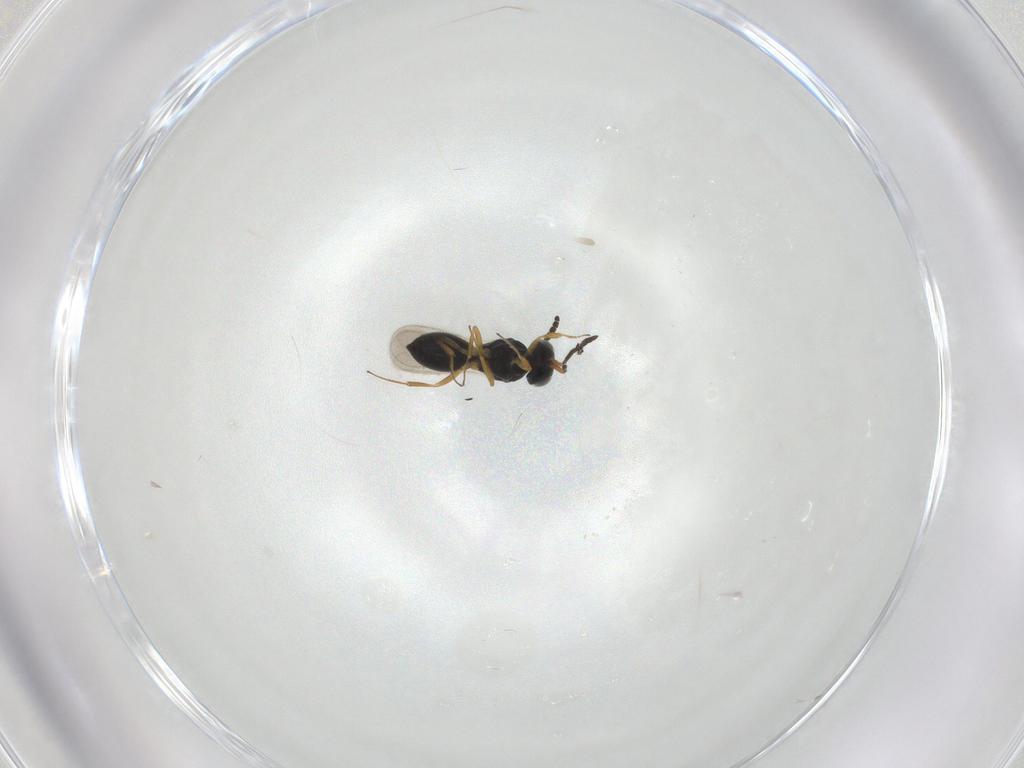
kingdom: Animalia
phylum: Arthropoda
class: Insecta
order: Hymenoptera
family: Scelionidae
